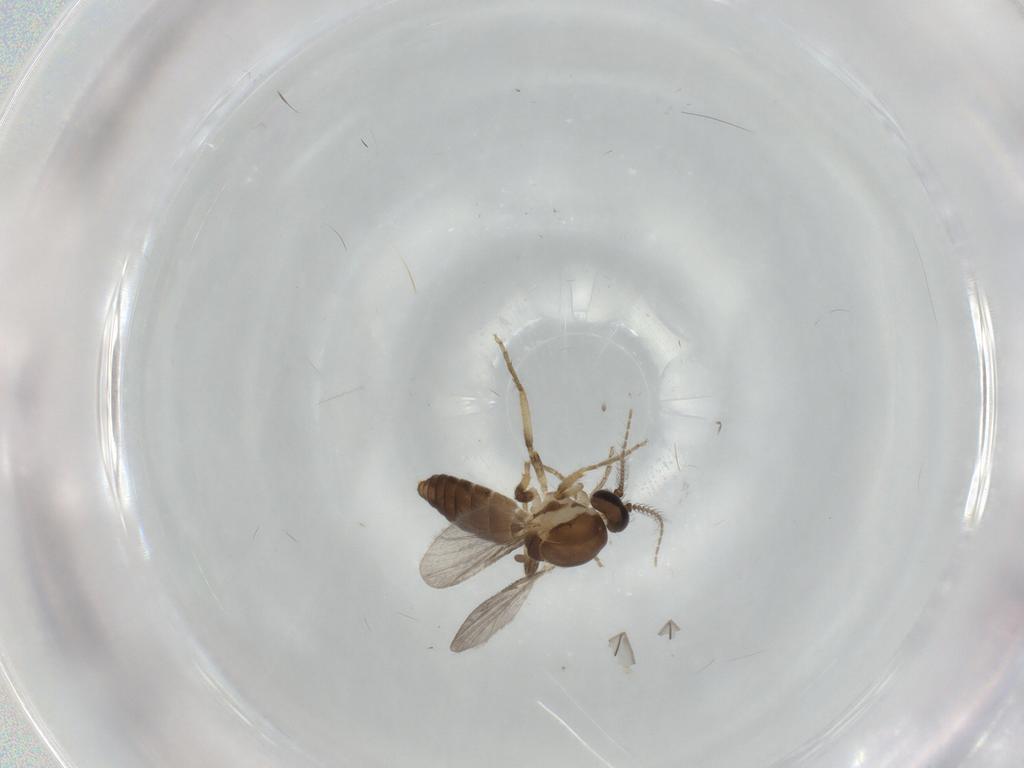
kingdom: Animalia
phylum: Arthropoda
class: Insecta
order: Diptera
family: Cecidomyiidae
